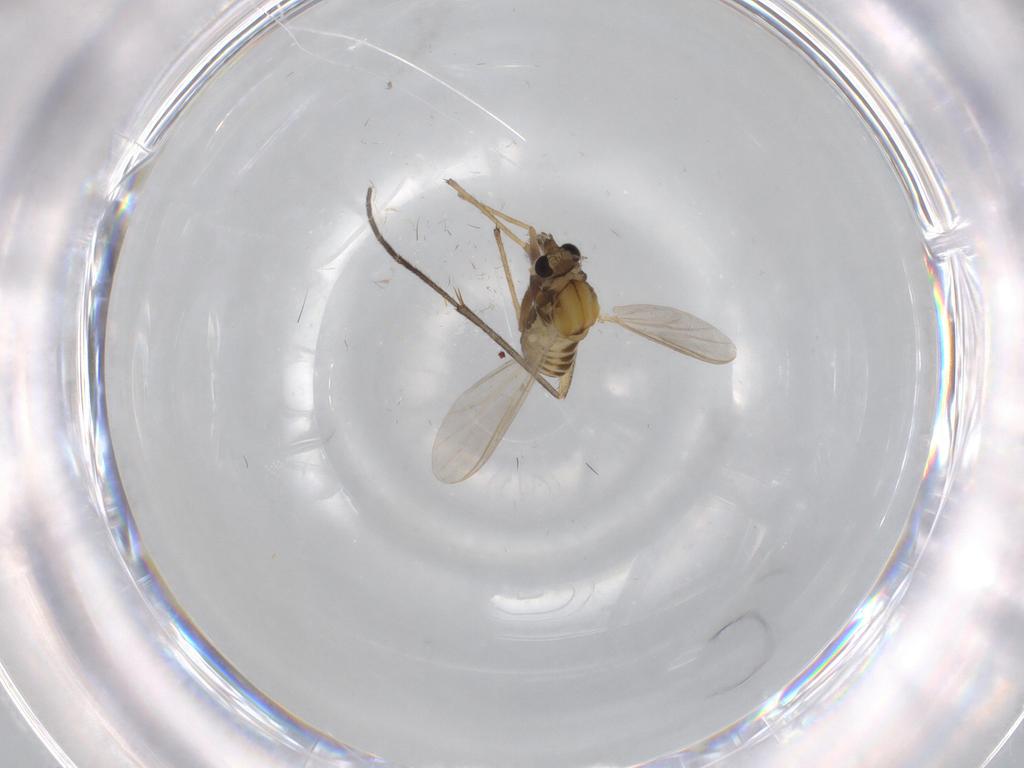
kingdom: Animalia
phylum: Arthropoda
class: Insecta
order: Diptera
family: Chironomidae
